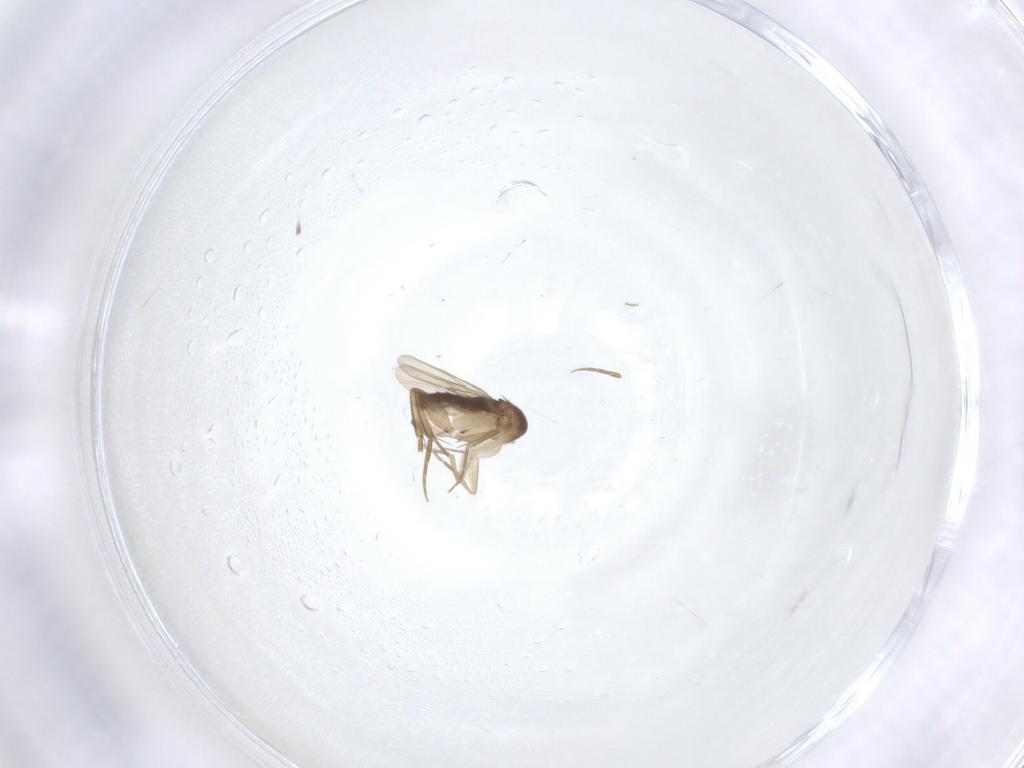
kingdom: Animalia
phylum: Arthropoda
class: Insecta
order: Diptera
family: Phoridae
